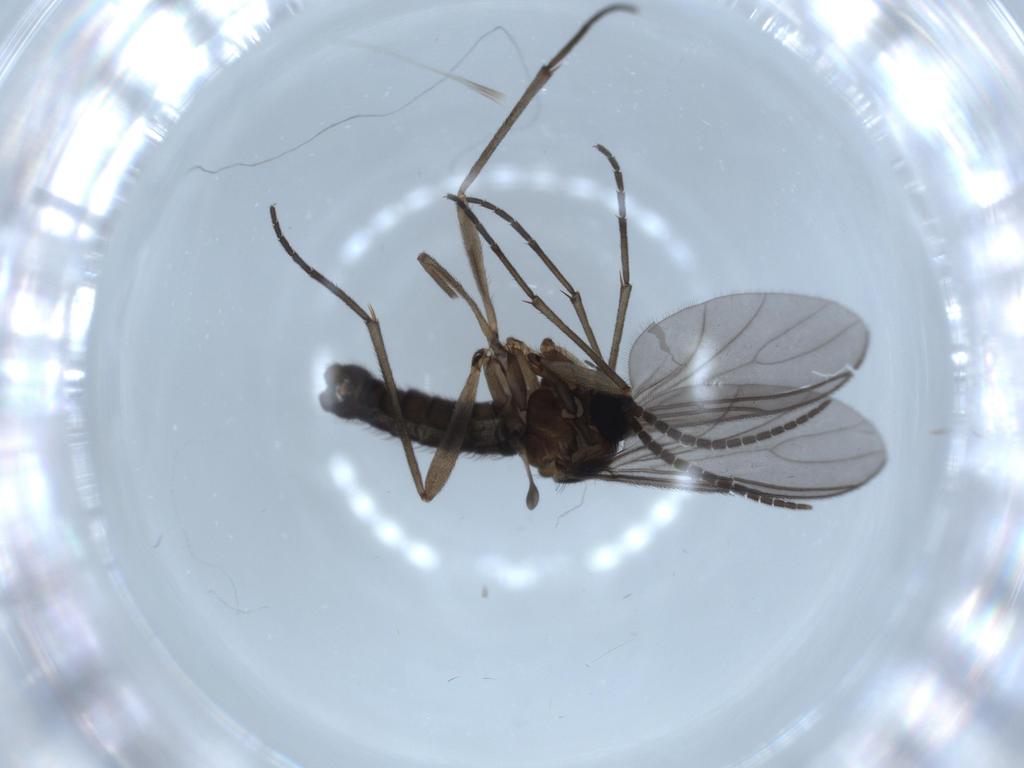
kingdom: Animalia
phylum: Arthropoda
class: Insecta
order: Diptera
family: Sciaridae
